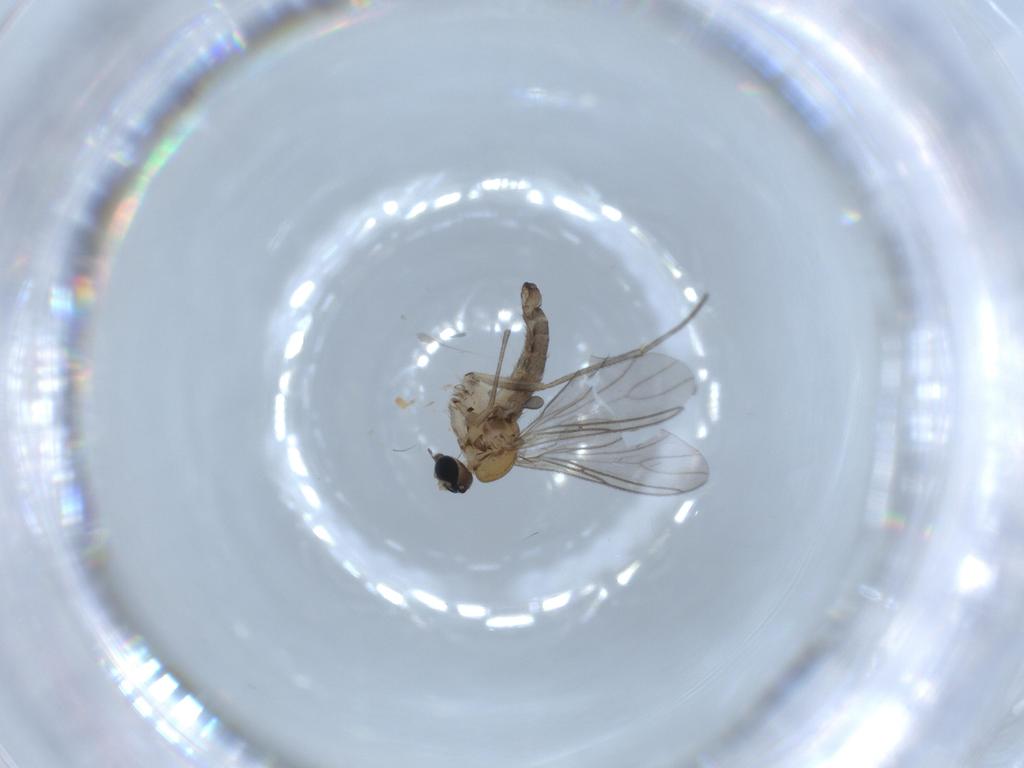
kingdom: Animalia
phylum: Arthropoda
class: Insecta
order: Diptera
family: Sciaridae
